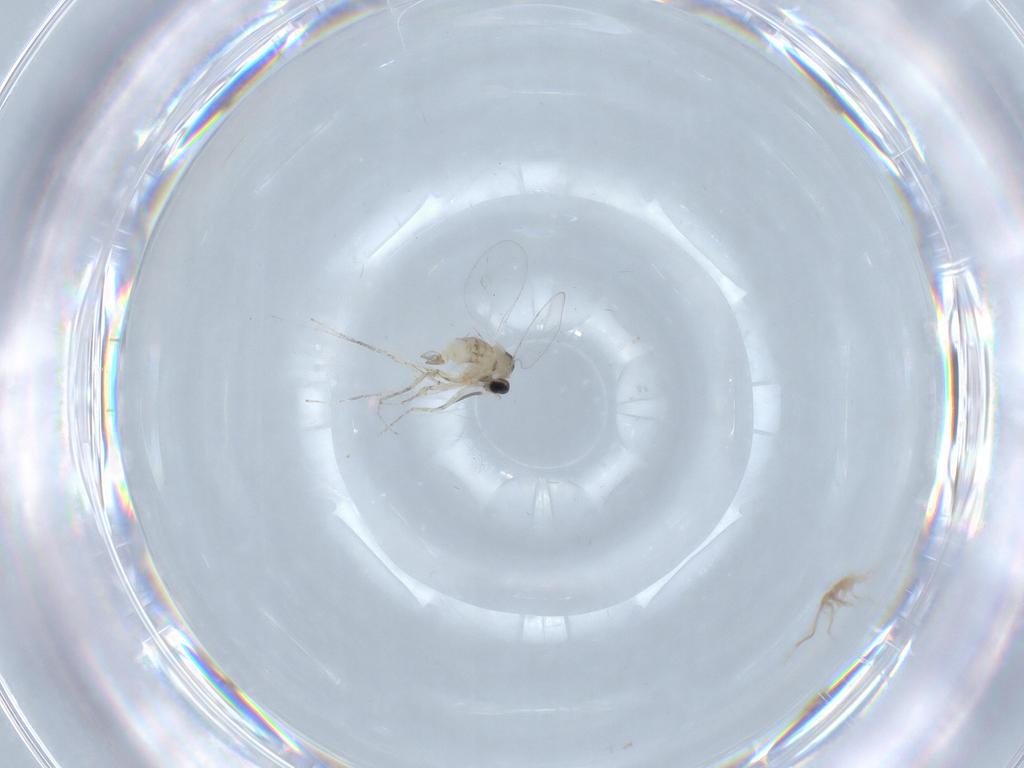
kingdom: Animalia
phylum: Arthropoda
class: Insecta
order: Diptera
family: Cecidomyiidae
